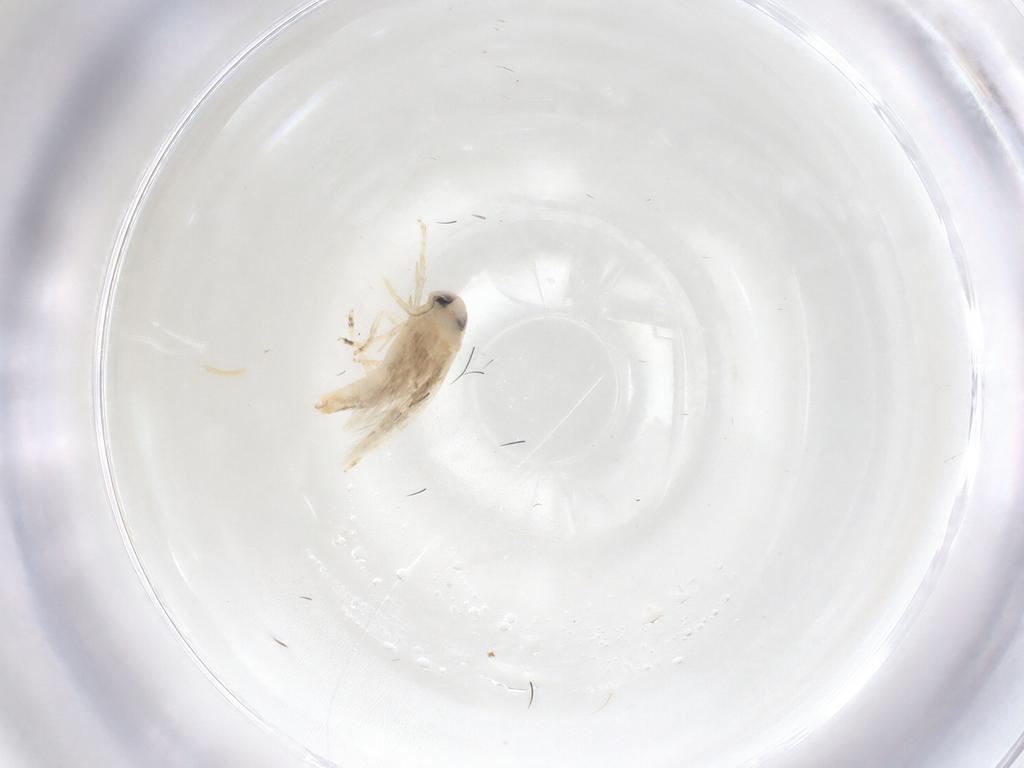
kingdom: Animalia
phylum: Arthropoda
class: Insecta
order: Lepidoptera
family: Opostegidae
